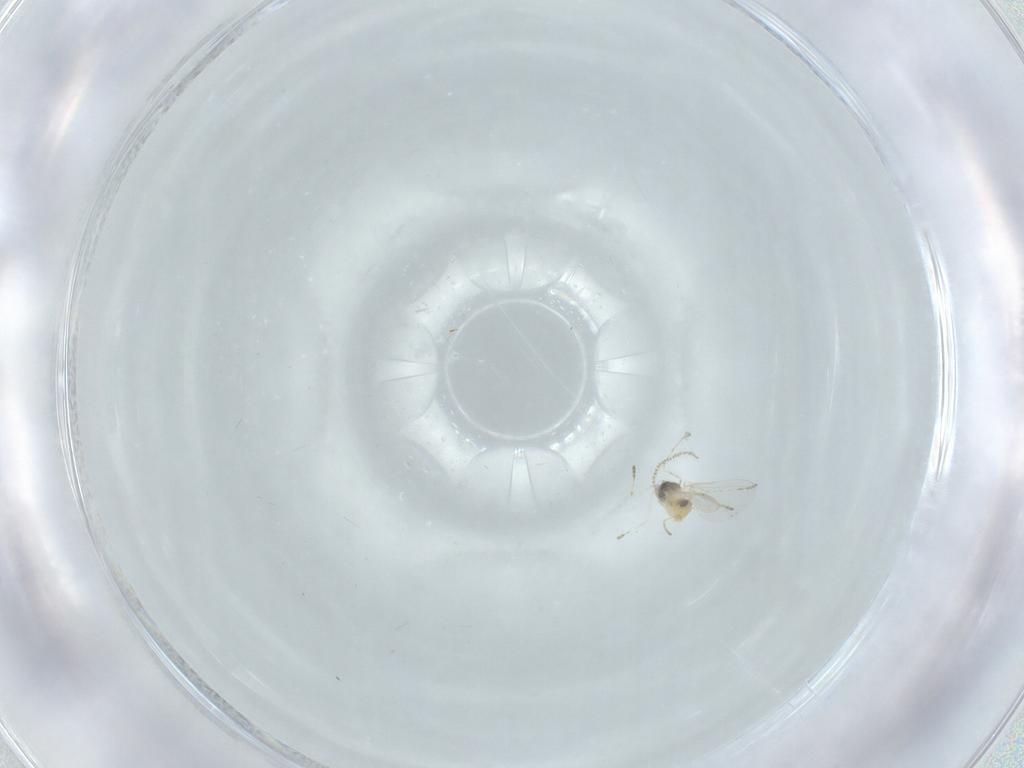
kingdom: Animalia
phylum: Arthropoda
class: Insecta
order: Diptera
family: Cecidomyiidae
